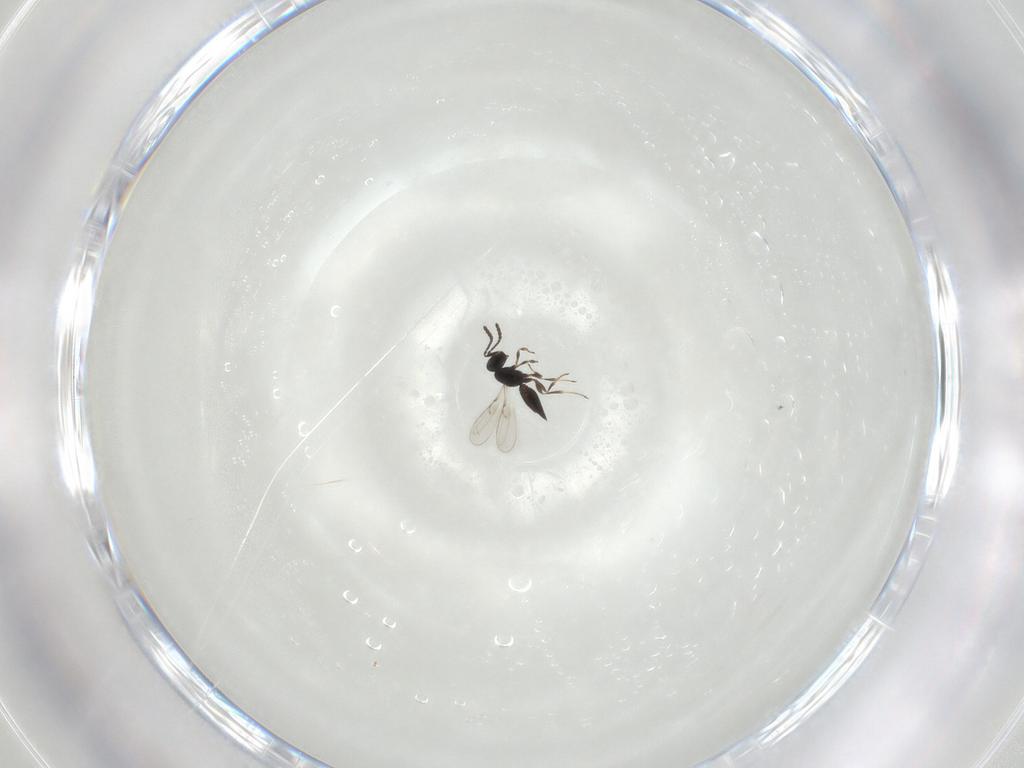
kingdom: Animalia
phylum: Arthropoda
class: Insecta
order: Hymenoptera
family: Scelionidae
